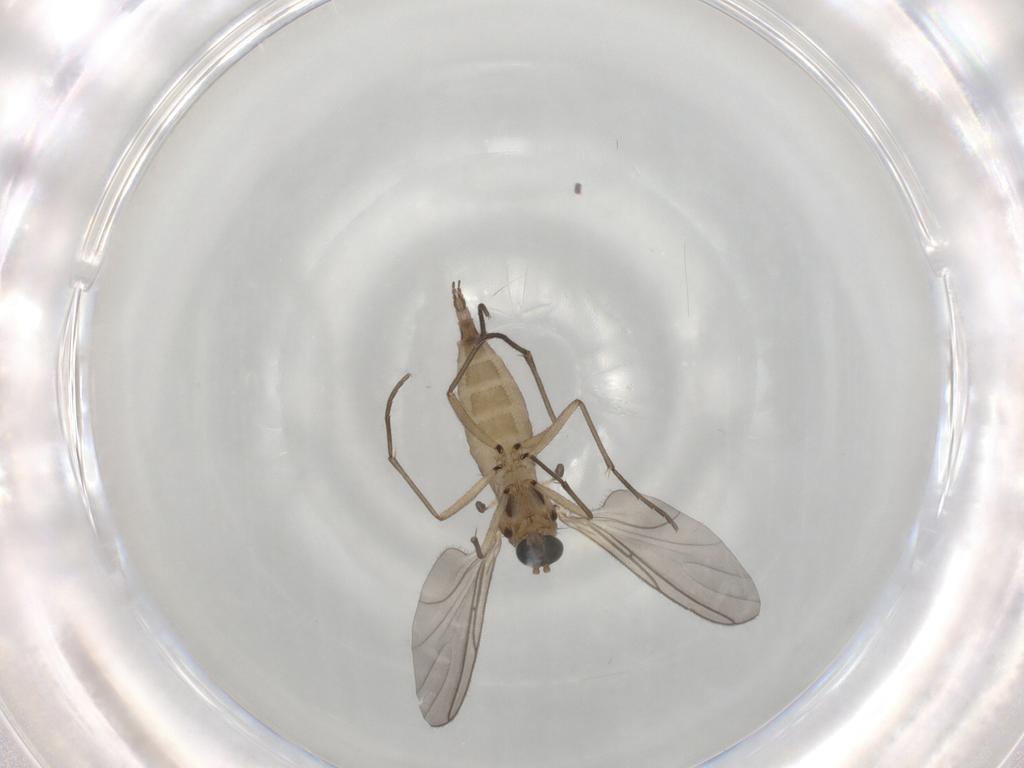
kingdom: Animalia
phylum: Arthropoda
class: Insecta
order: Diptera
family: Sciaridae
